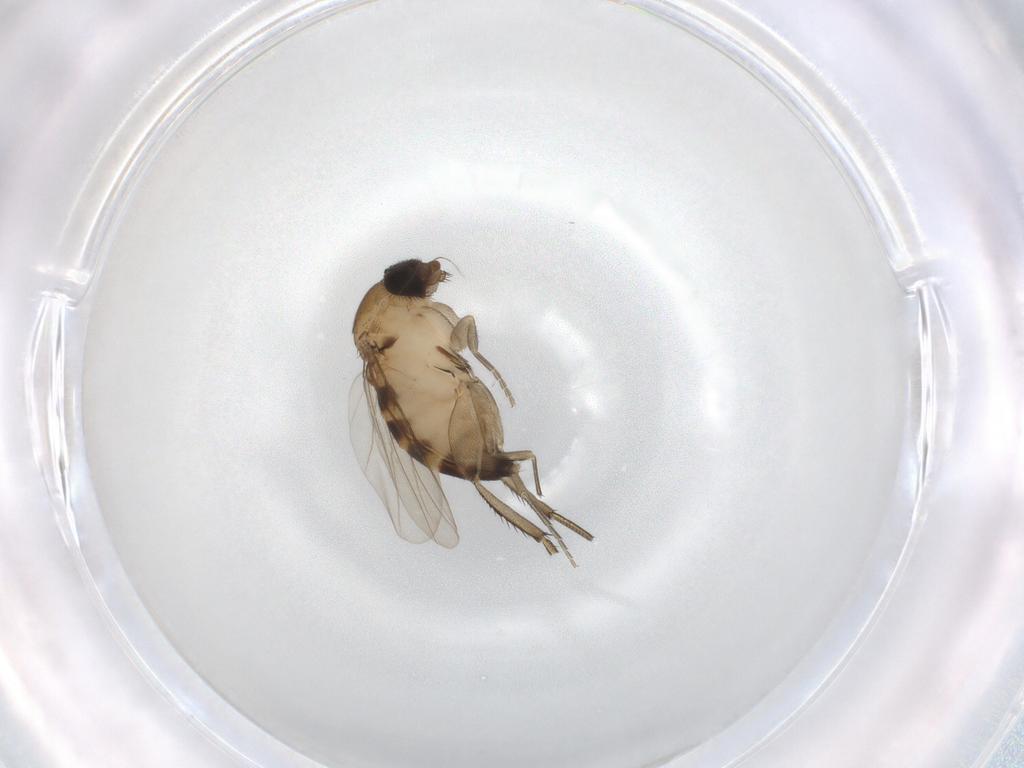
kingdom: Animalia
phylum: Arthropoda
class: Insecta
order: Diptera
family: Phoridae
